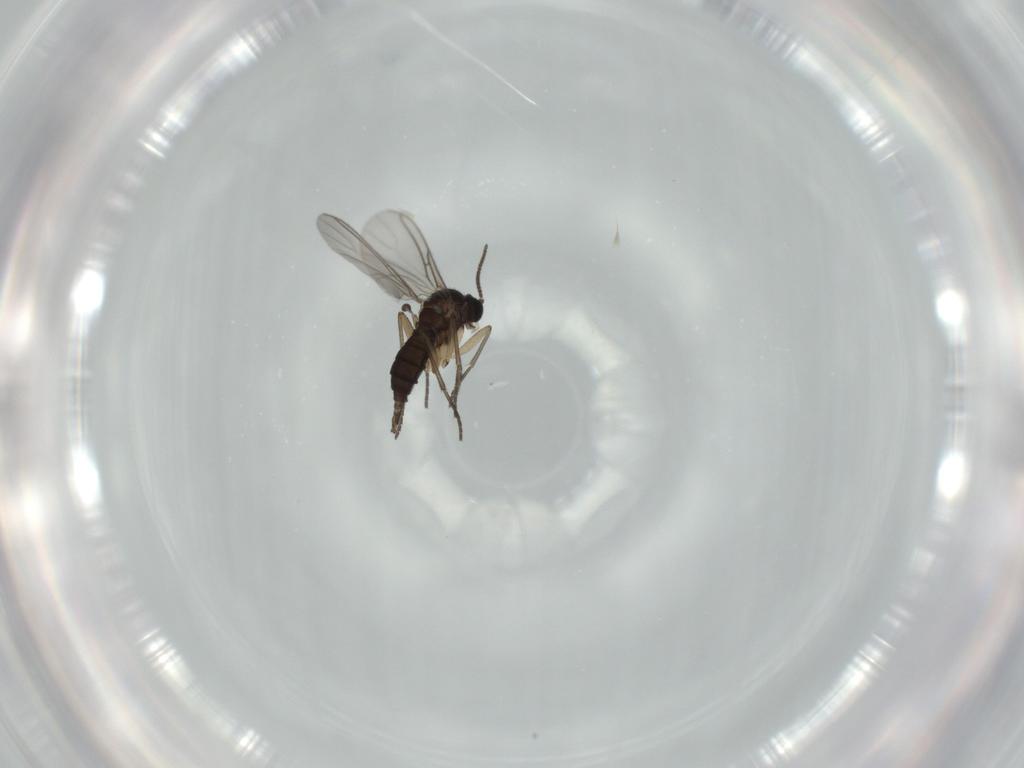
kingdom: Animalia
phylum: Arthropoda
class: Insecta
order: Diptera
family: Sciaridae
